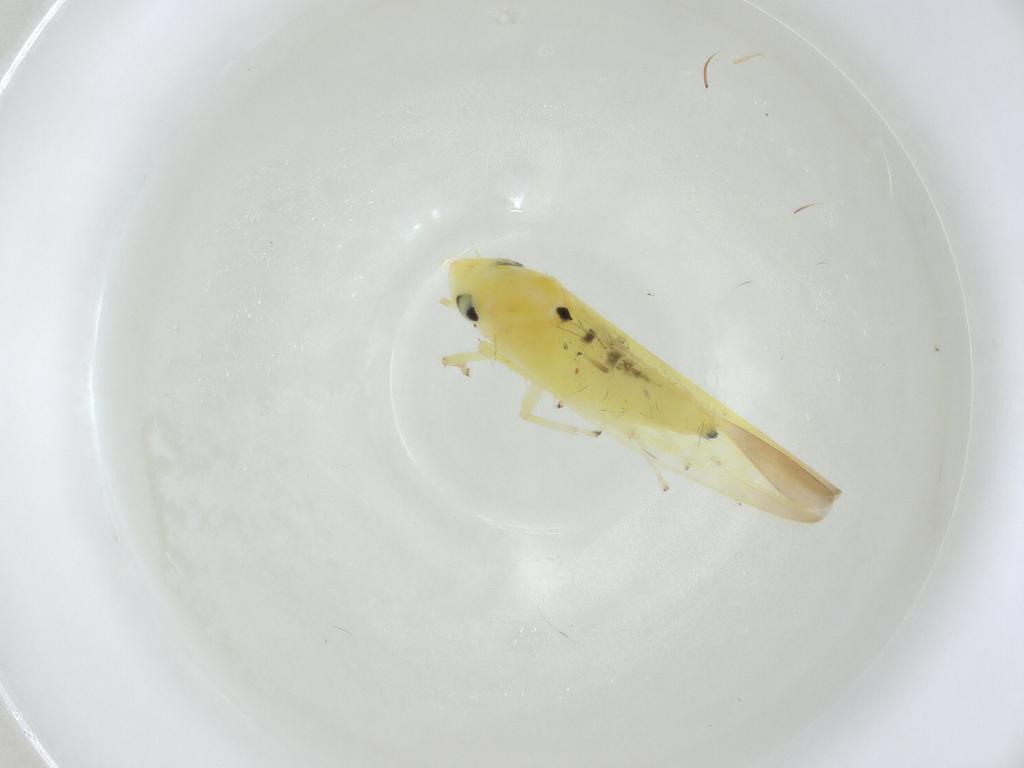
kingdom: Animalia
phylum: Arthropoda
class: Insecta
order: Hemiptera
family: Cicadellidae
